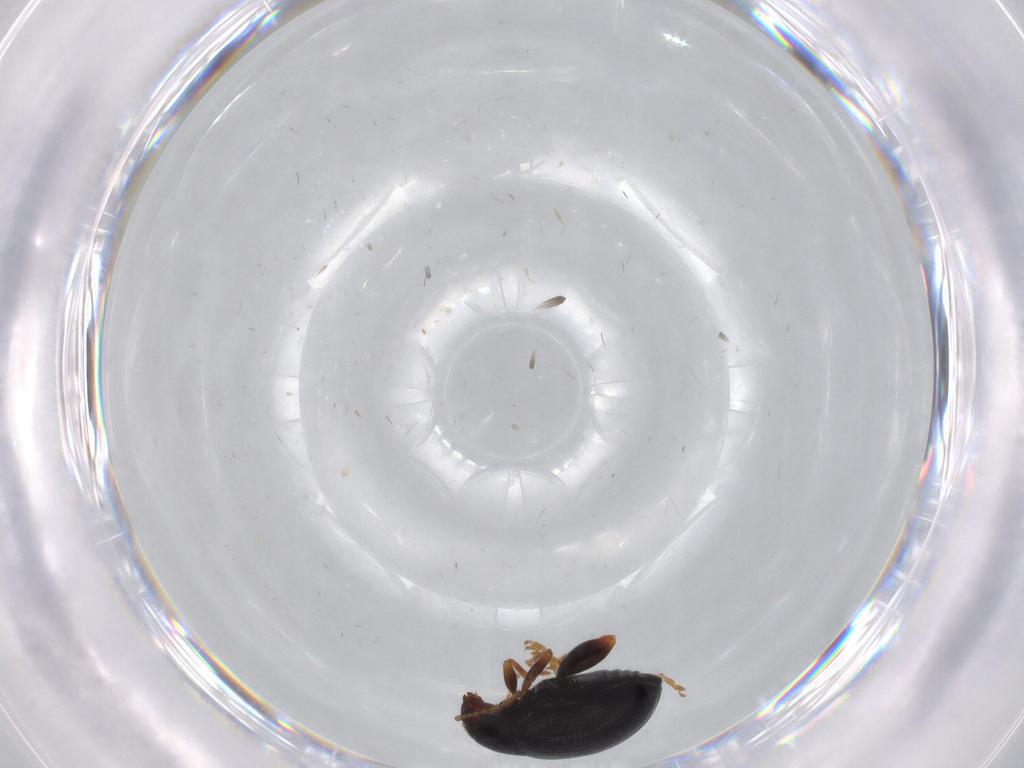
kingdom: Animalia
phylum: Arthropoda
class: Insecta
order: Coleoptera
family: Chrysomelidae
